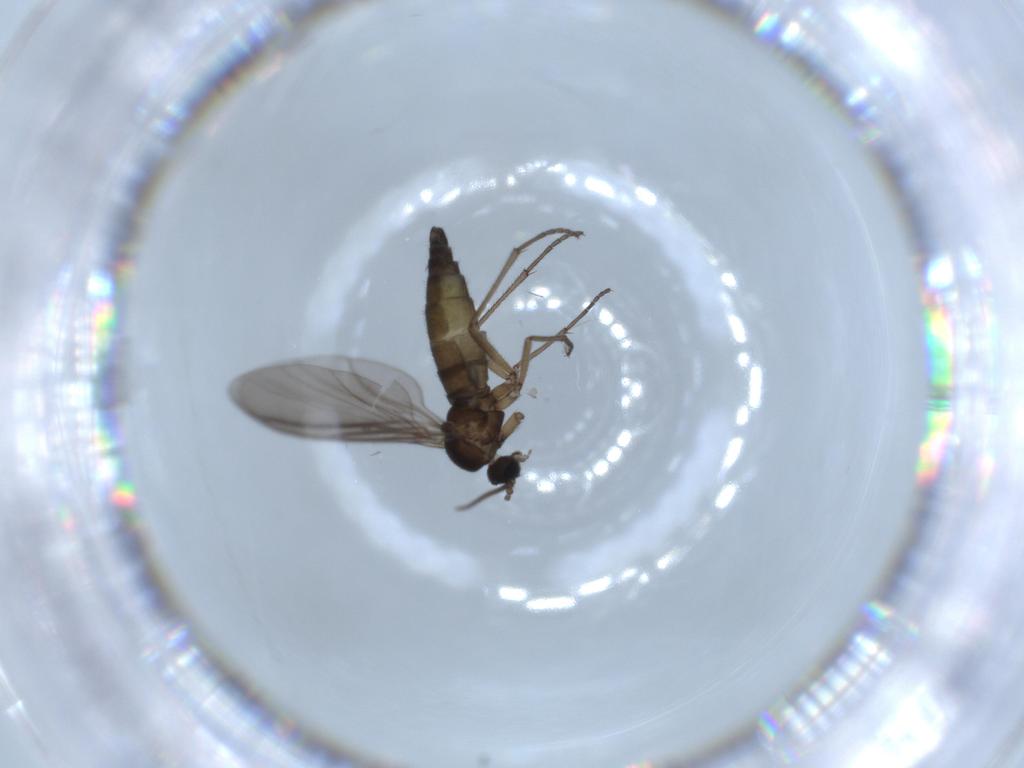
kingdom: Animalia
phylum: Arthropoda
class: Insecta
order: Diptera
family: Sciaridae
